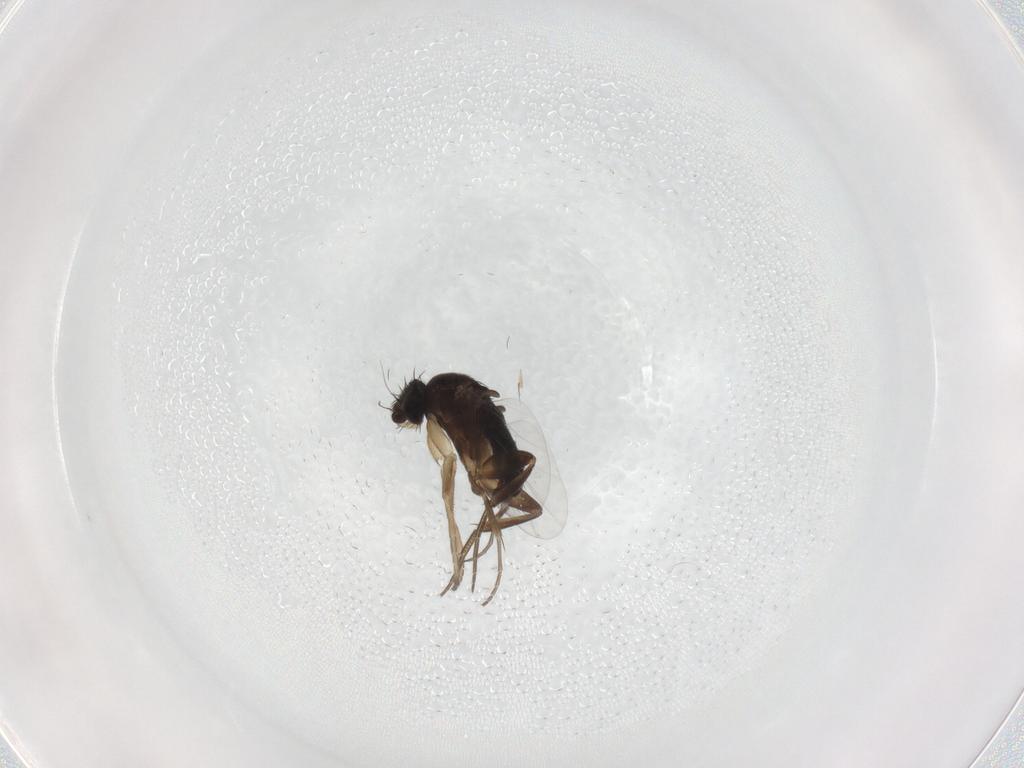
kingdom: Animalia
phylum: Arthropoda
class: Insecta
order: Diptera
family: Phoridae
